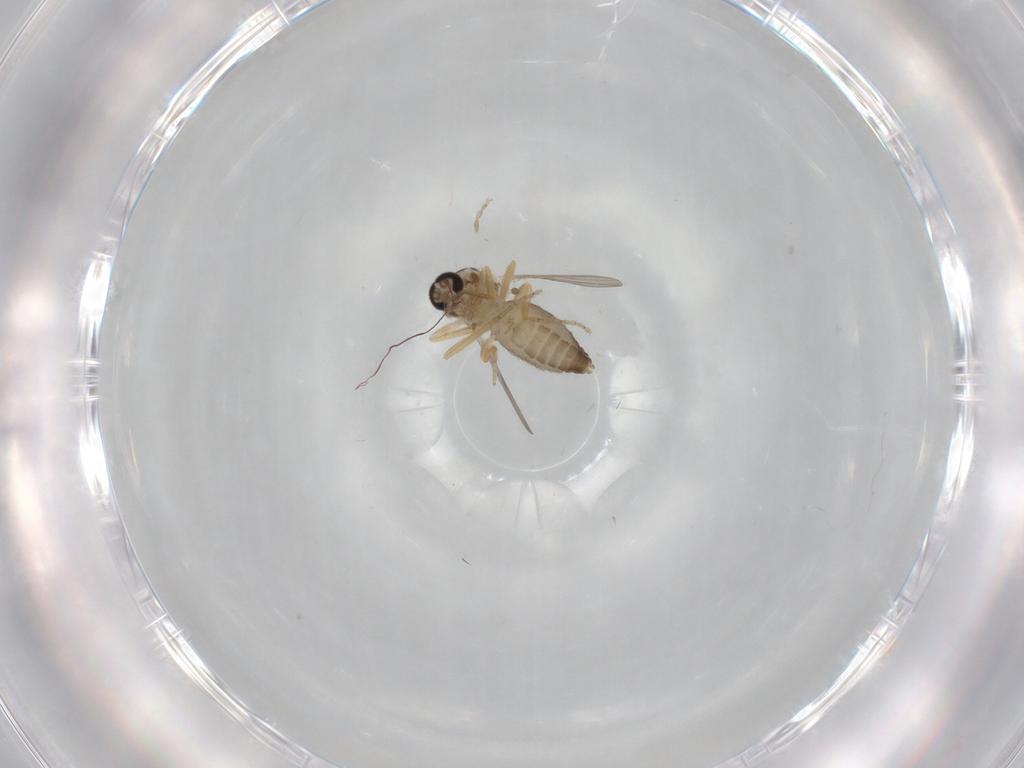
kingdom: Animalia
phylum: Arthropoda
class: Insecta
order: Diptera
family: Ceratopogonidae
